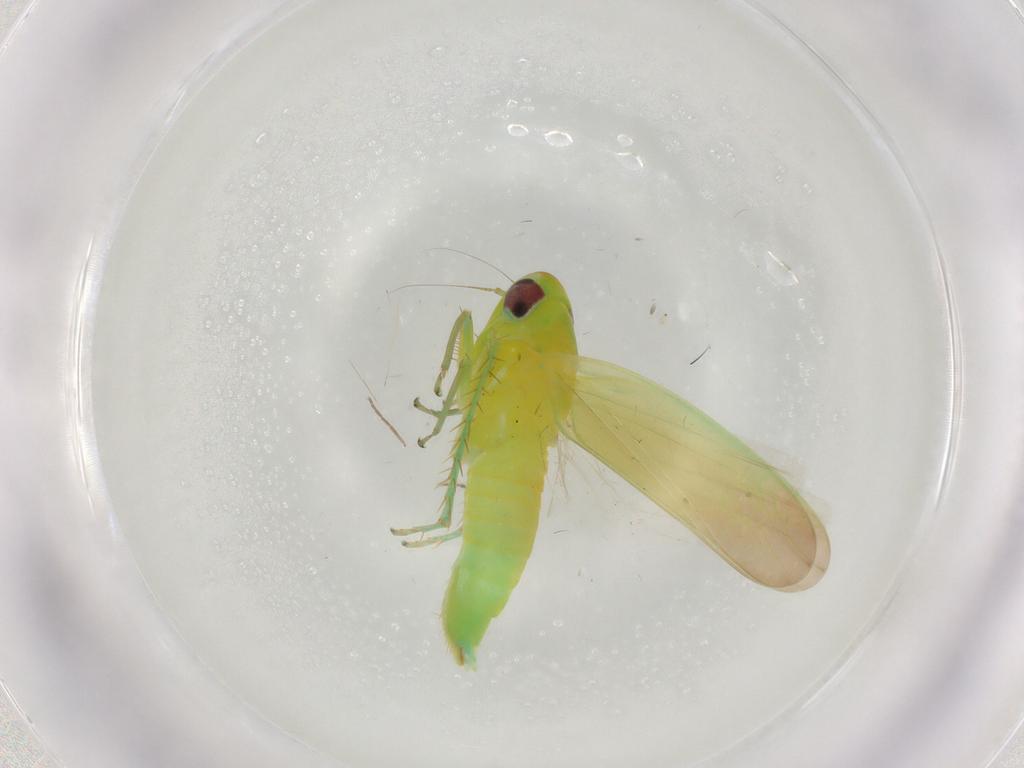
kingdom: Animalia
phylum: Arthropoda
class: Insecta
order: Hemiptera
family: Cicadellidae
